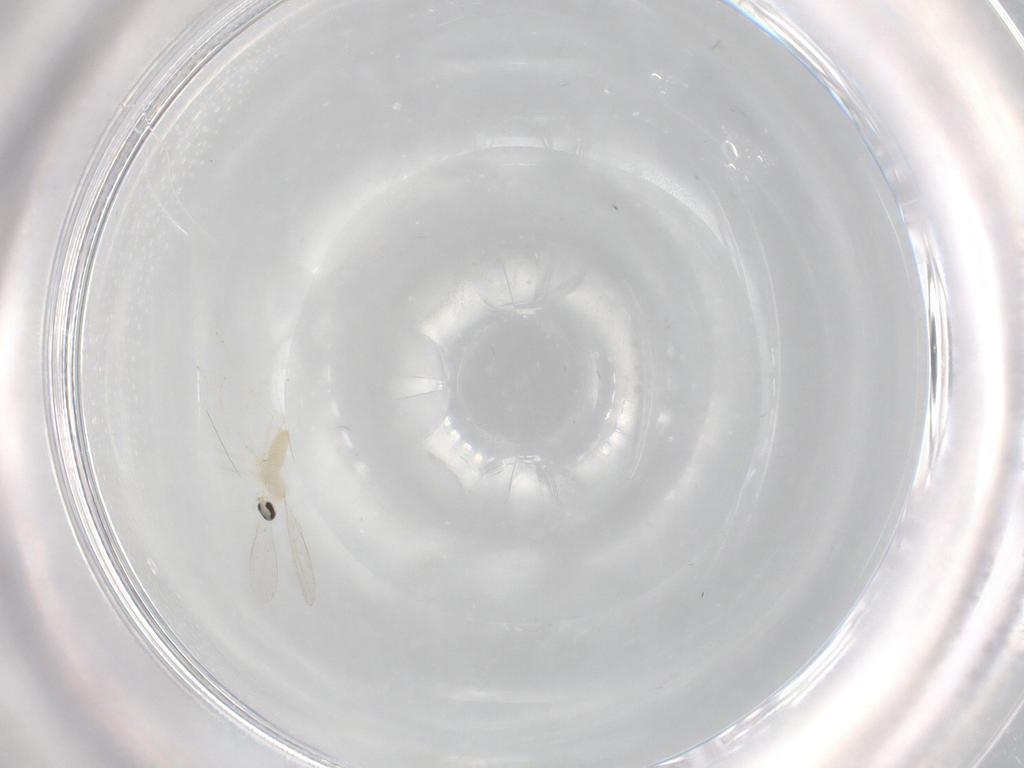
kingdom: Animalia
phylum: Arthropoda
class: Insecta
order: Diptera
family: Cecidomyiidae
